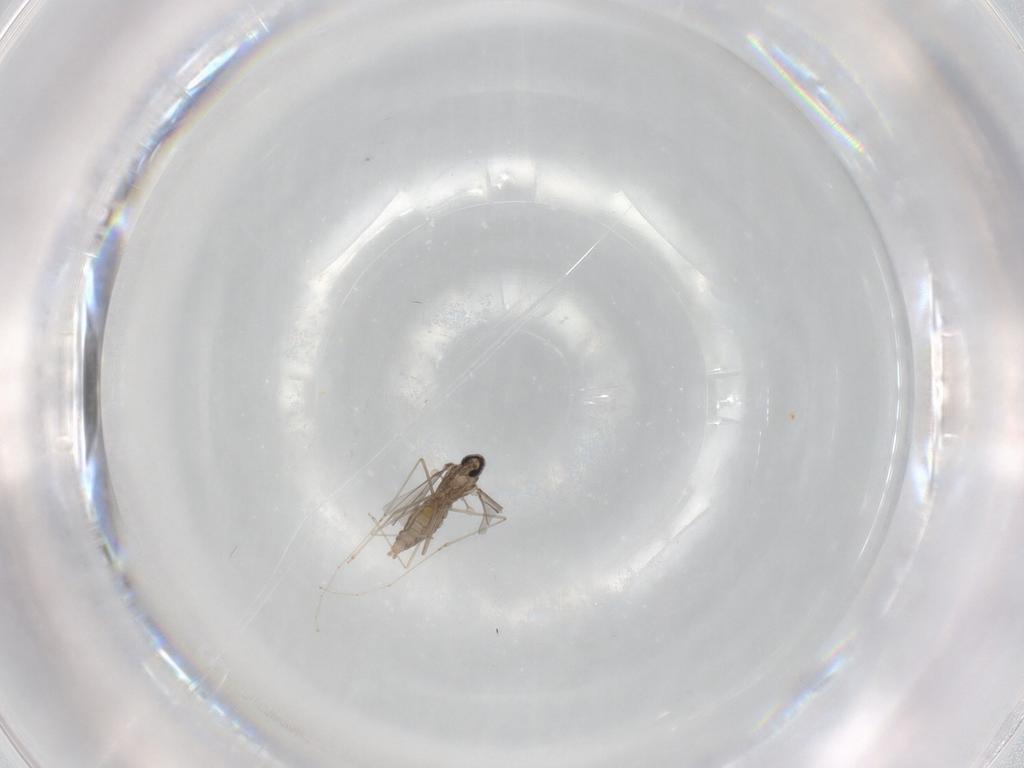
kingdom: Animalia
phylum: Arthropoda
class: Insecta
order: Diptera
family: Cecidomyiidae
